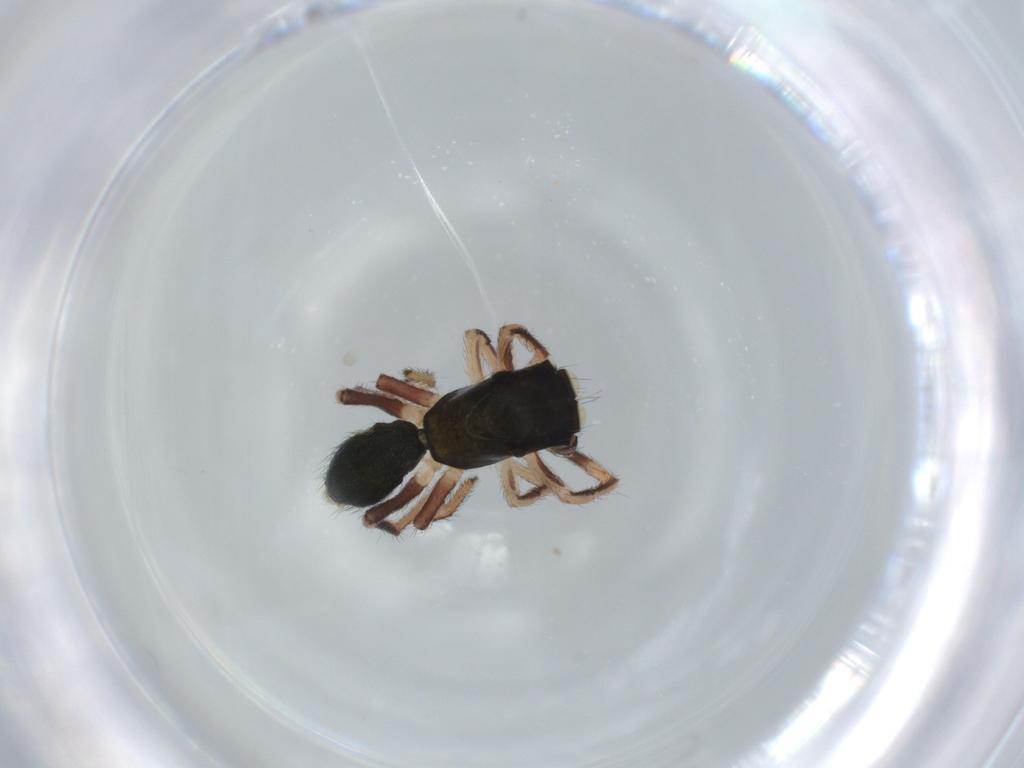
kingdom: Animalia
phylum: Arthropoda
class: Arachnida
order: Araneae
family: Salticidae
